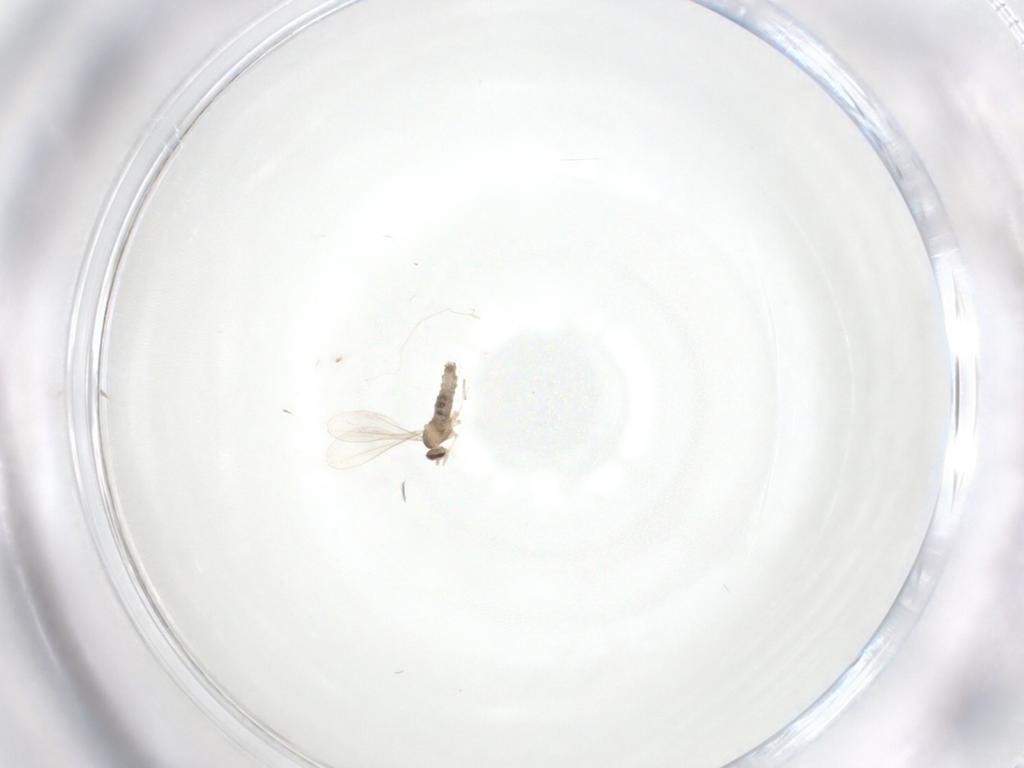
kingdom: Animalia
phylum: Arthropoda
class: Insecta
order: Diptera
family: Cecidomyiidae
